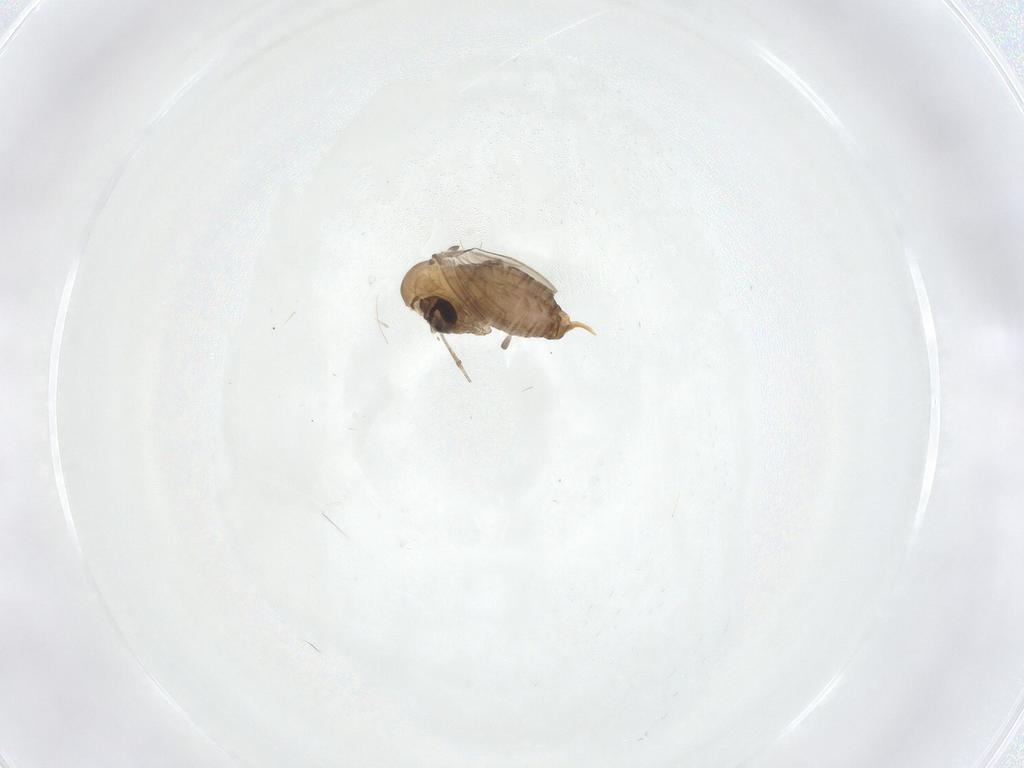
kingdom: Animalia
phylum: Arthropoda
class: Insecta
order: Diptera
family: Psychodidae
